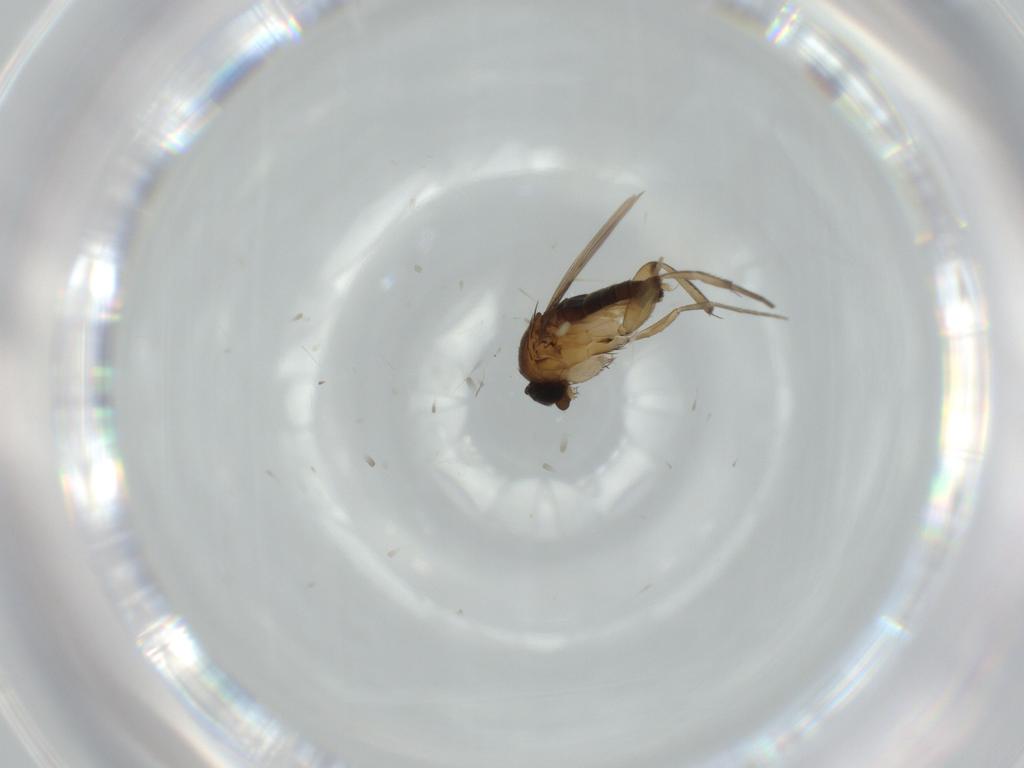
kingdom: Animalia
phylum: Arthropoda
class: Insecta
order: Diptera
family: Phoridae
